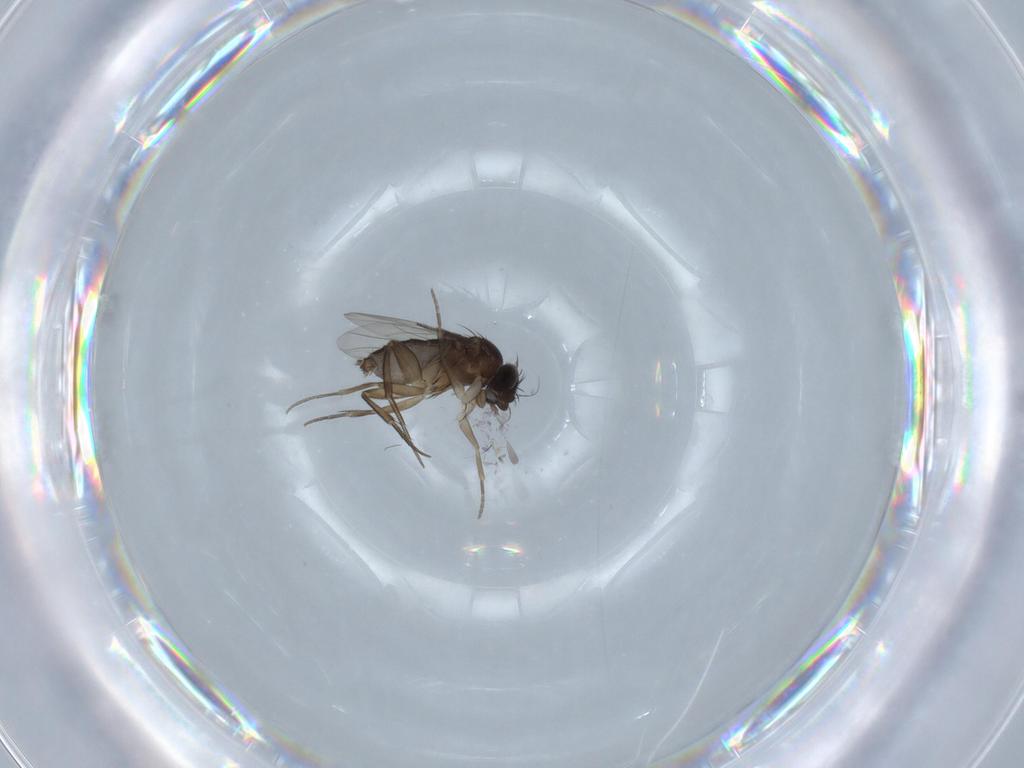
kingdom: Animalia
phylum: Arthropoda
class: Insecta
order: Diptera
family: Phoridae
